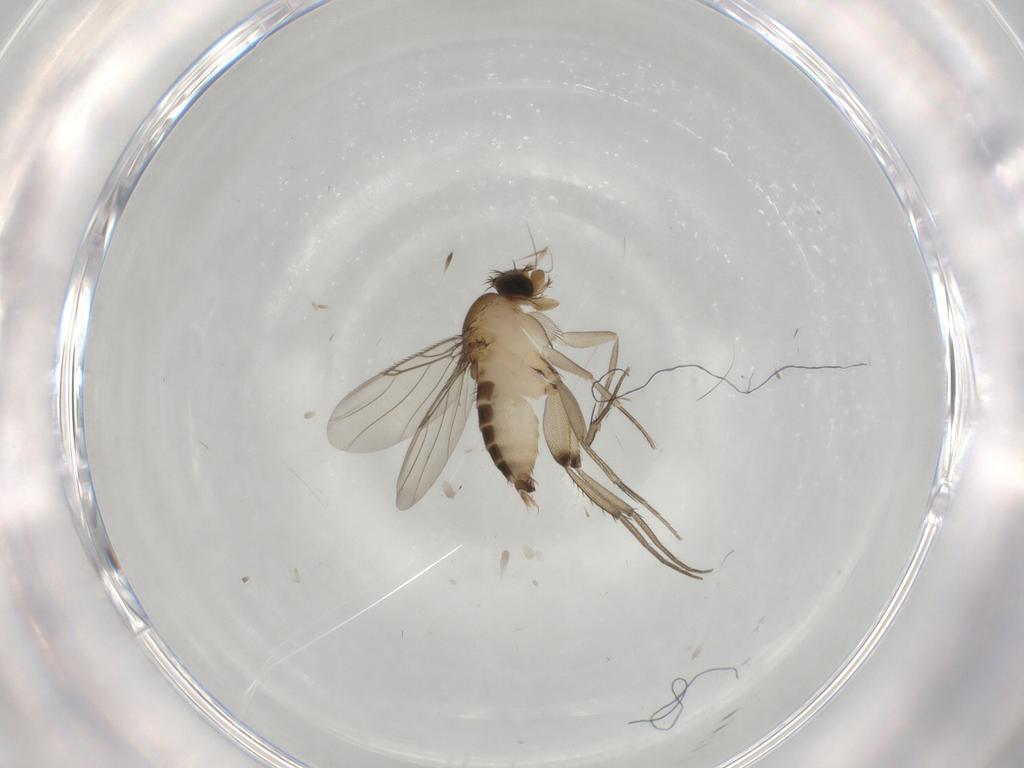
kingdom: Animalia
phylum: Arthropoda
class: Insecta
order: Diptera
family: Phoridae
